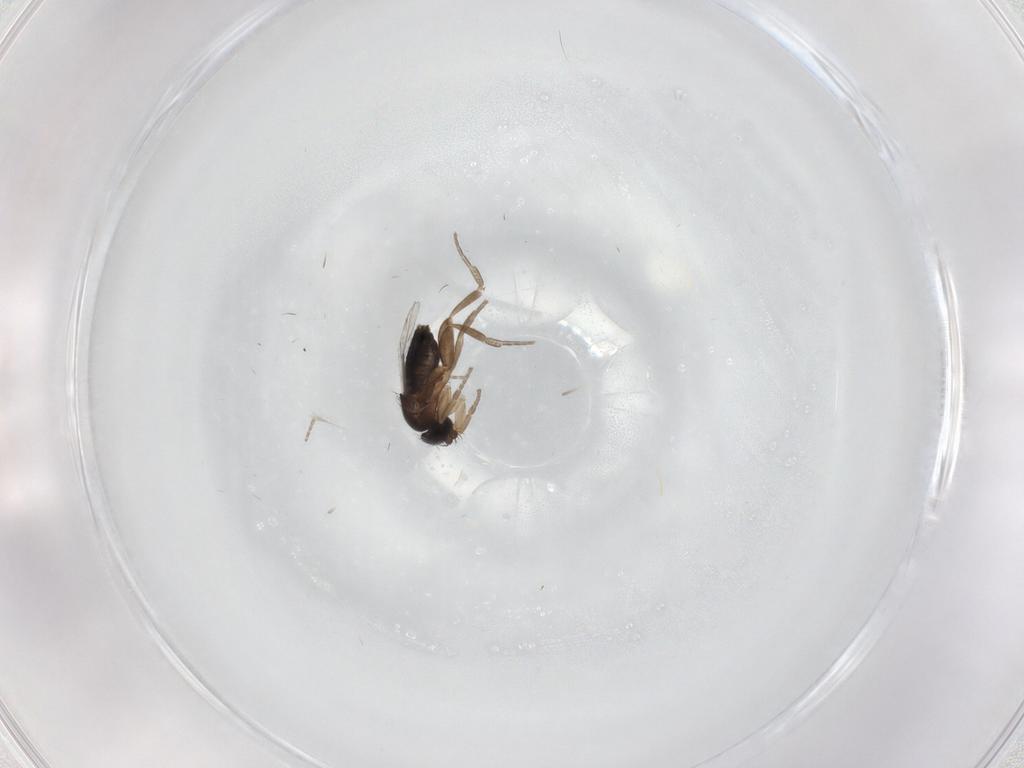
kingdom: Animalia
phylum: Arthropoda
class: Insecta
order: Diptera
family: Phoridae
